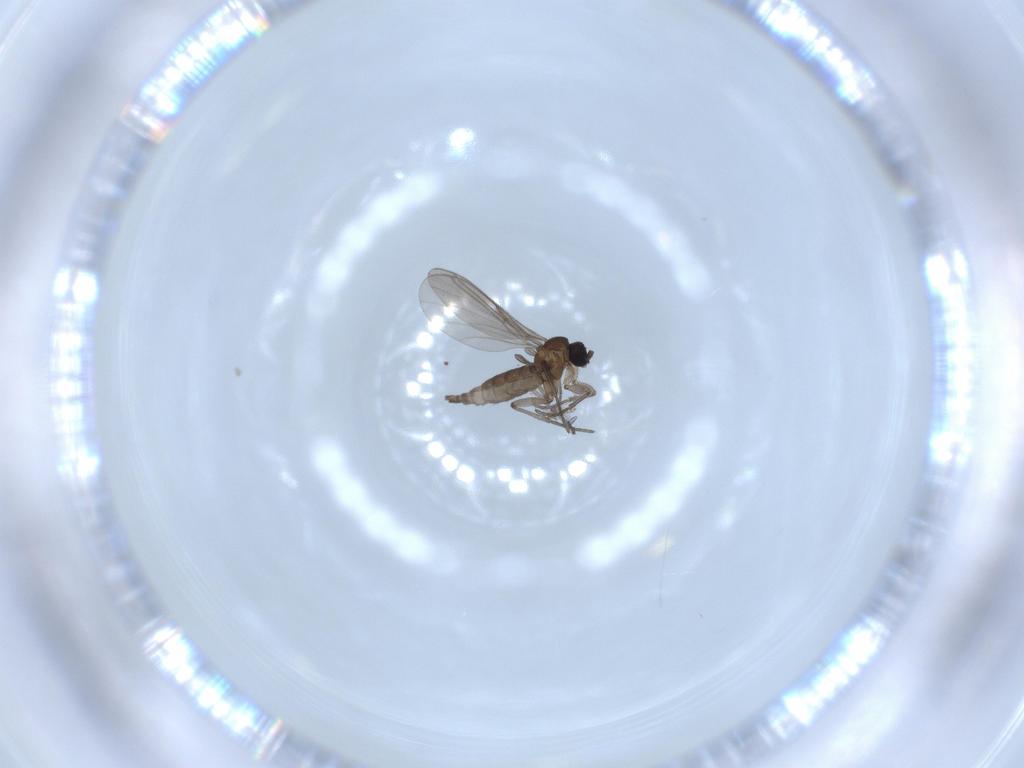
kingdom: Animalia
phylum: Arthropoda
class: Insecta
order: Diptera
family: Cecidomyiidae
